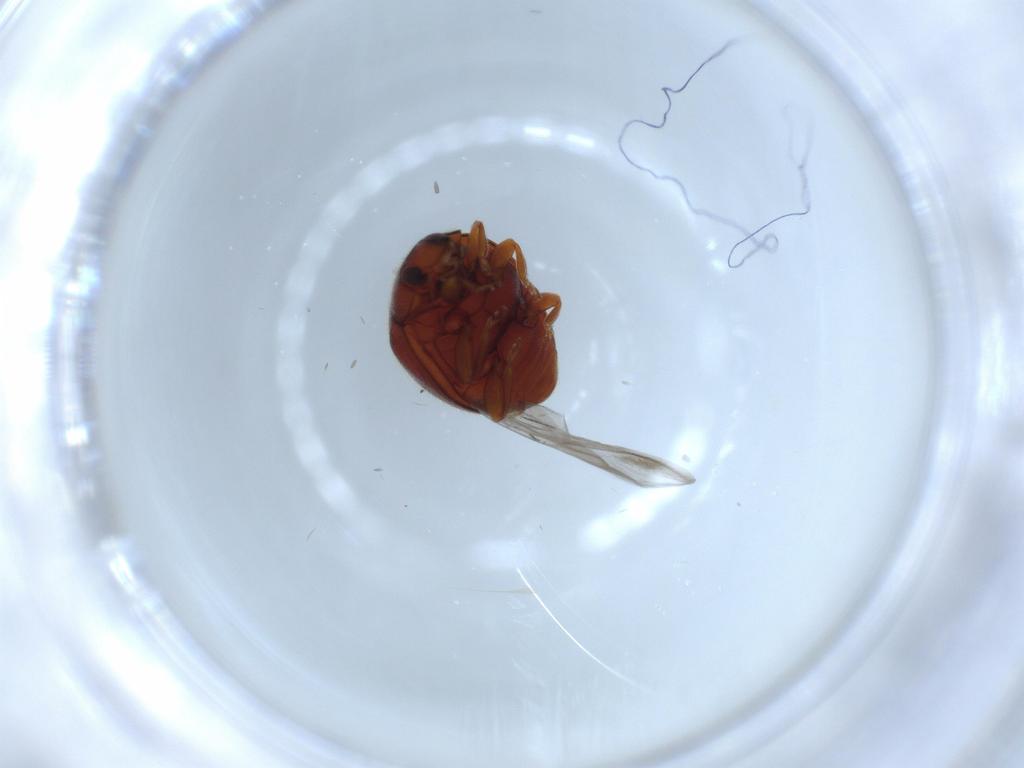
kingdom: Animalia
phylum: Arthropoda
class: Insecta
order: Coleoptera
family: Coccinellidae
